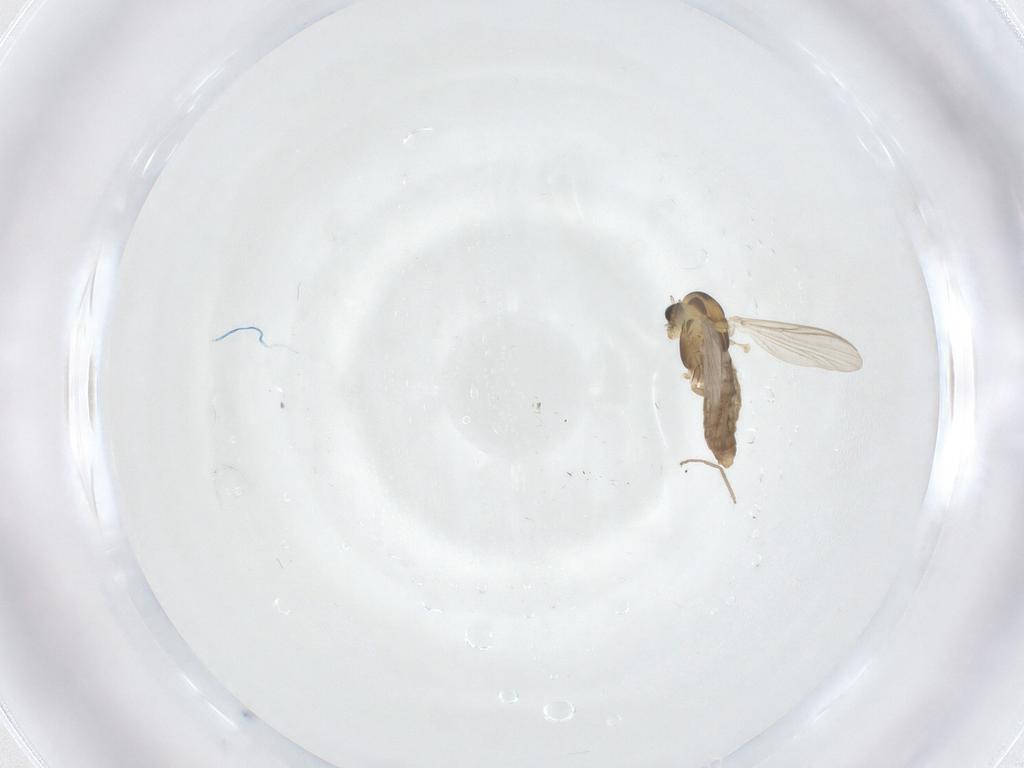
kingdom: Animalia
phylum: Arthropoda
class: Insecta
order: Diptera
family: Chironomidae
